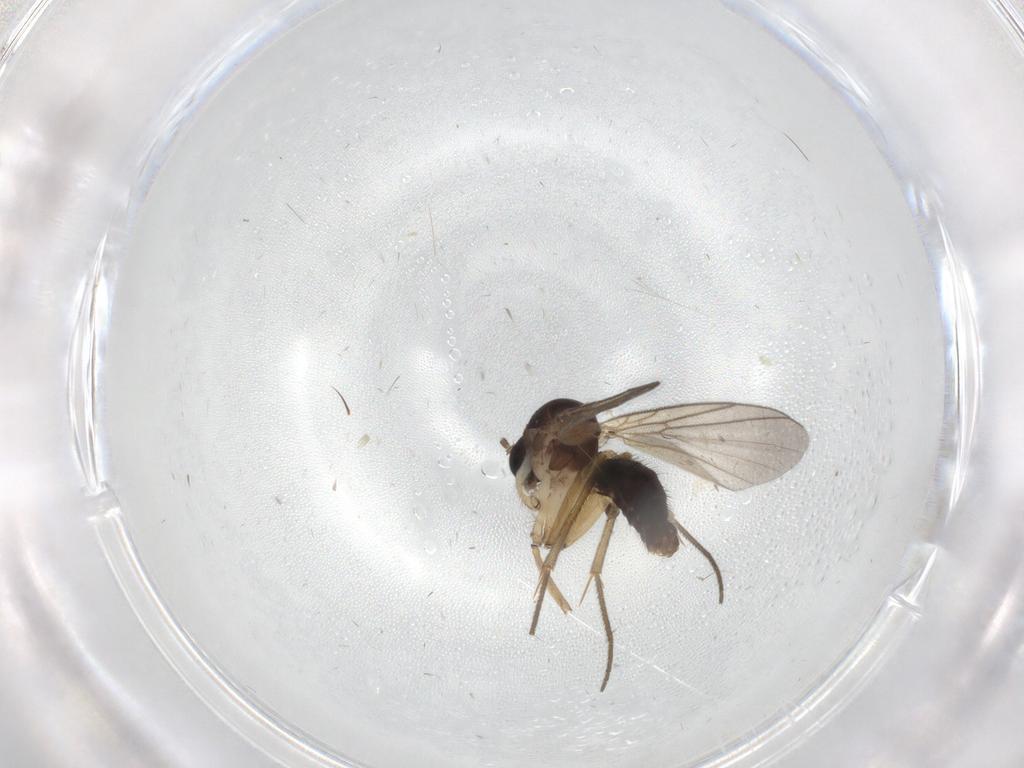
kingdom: Animalia
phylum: Arthropoda
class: Insecta
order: Diptera
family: Mycetophilidae
